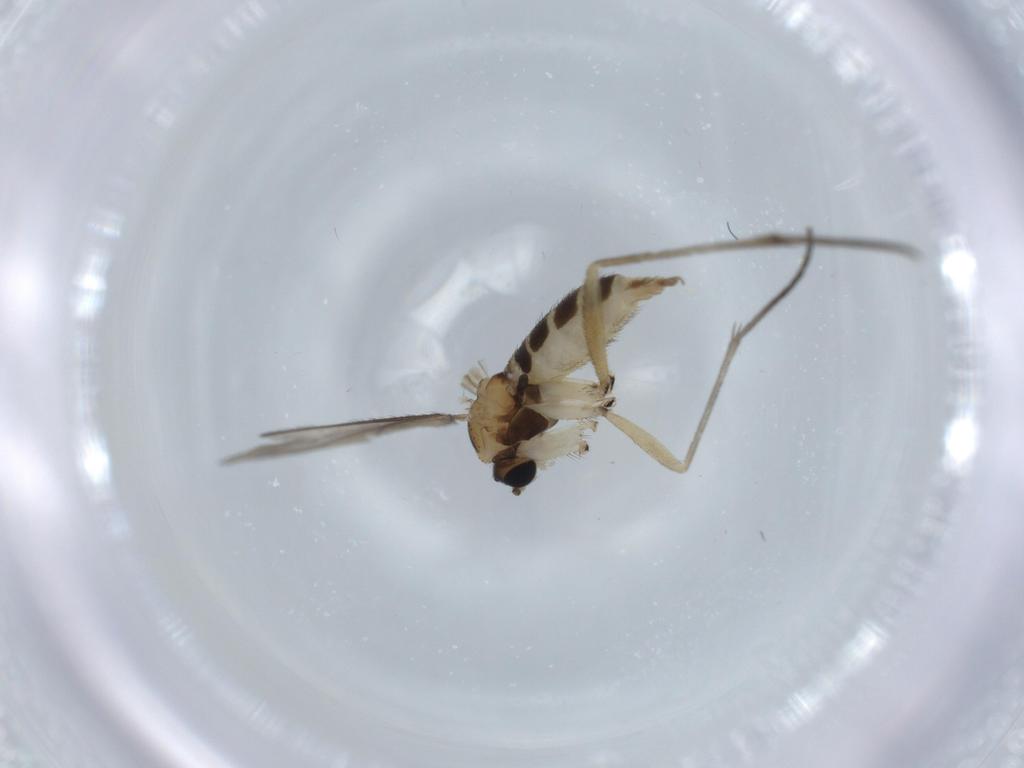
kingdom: Animalia
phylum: Arthropoda
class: Insecta
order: Diptera
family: Sciaridae
